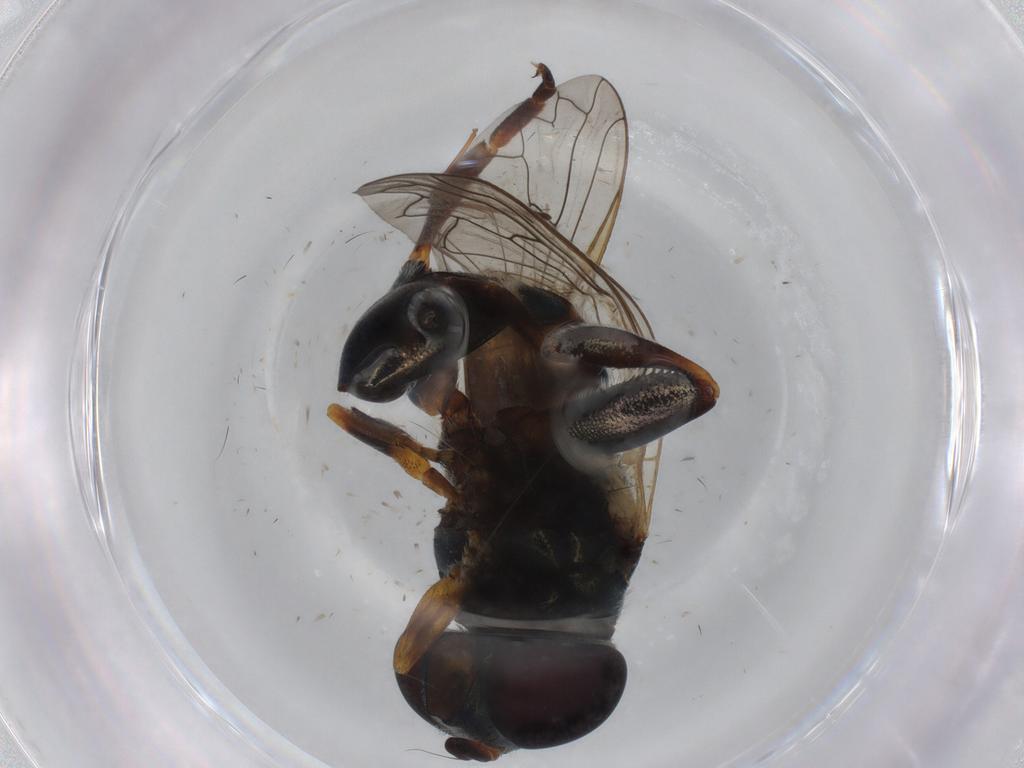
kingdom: Animalia
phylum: Arthropoda
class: Insecta
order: Diptera
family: Syrphidae
